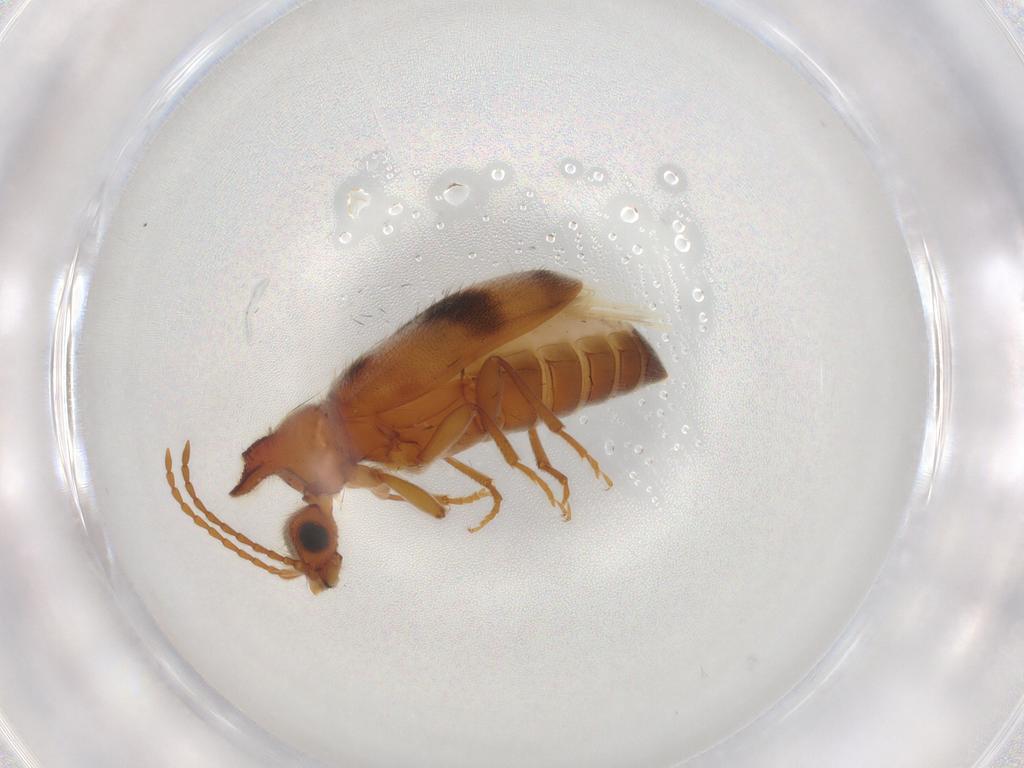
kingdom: Animalia
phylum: Arthropoda
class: Insecta
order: Coleoptera
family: Anthicidae
